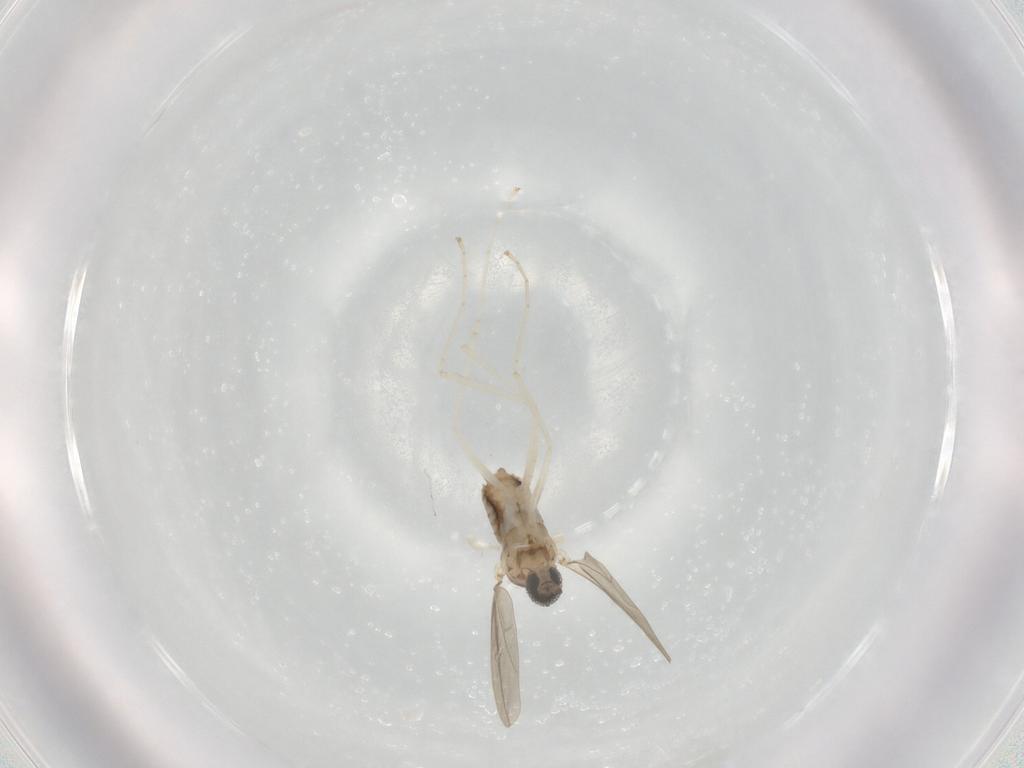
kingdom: Animalia
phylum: Arthropoda
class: Insecta
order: Diptera
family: Chironomidae
